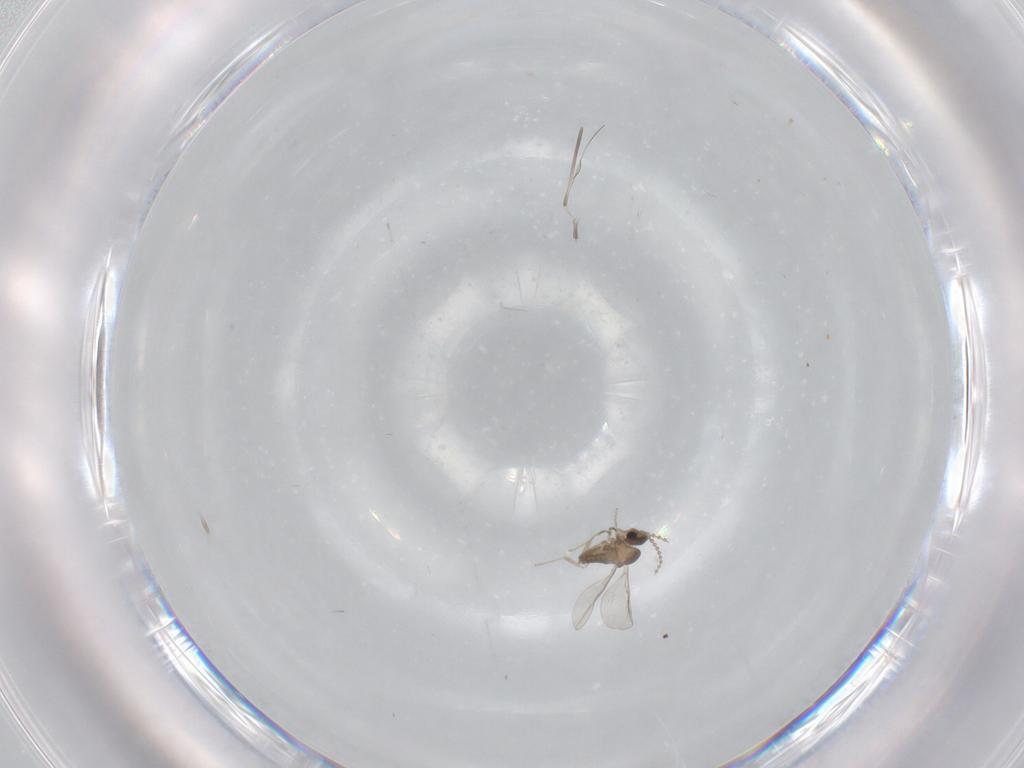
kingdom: Animalia
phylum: Arthropoda
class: Insecta
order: Diptera
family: Cecidomyiidae
